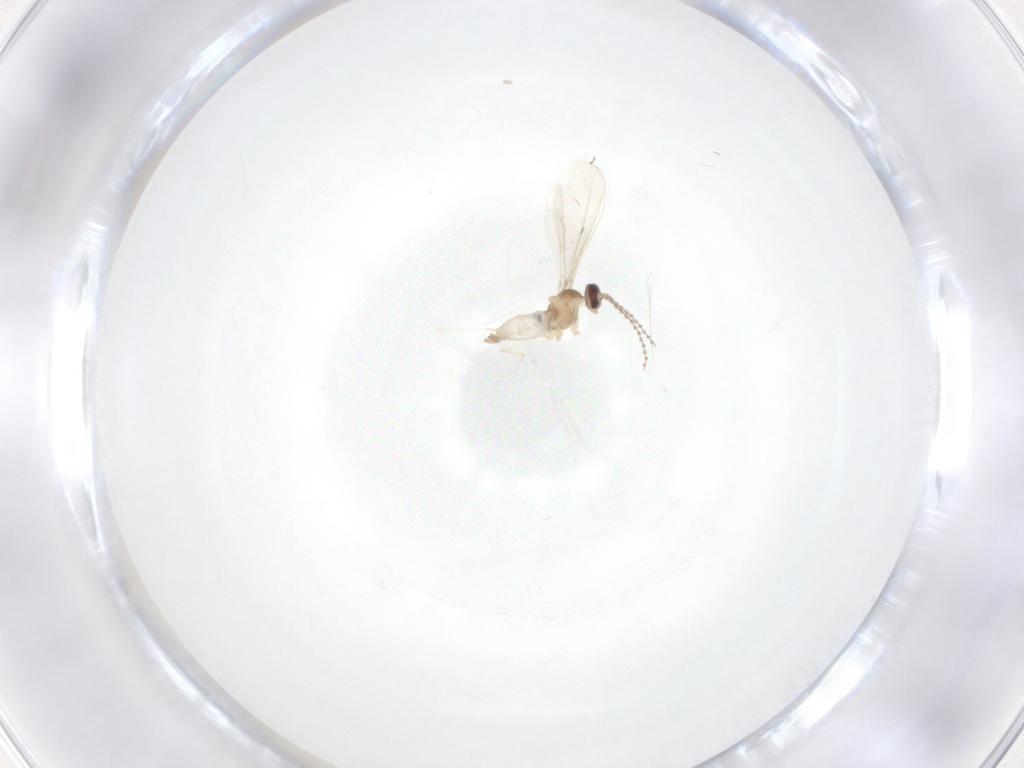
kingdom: Animalia
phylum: Arthropoda
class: Insecta
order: Diptera
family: Cecidomyiidae
